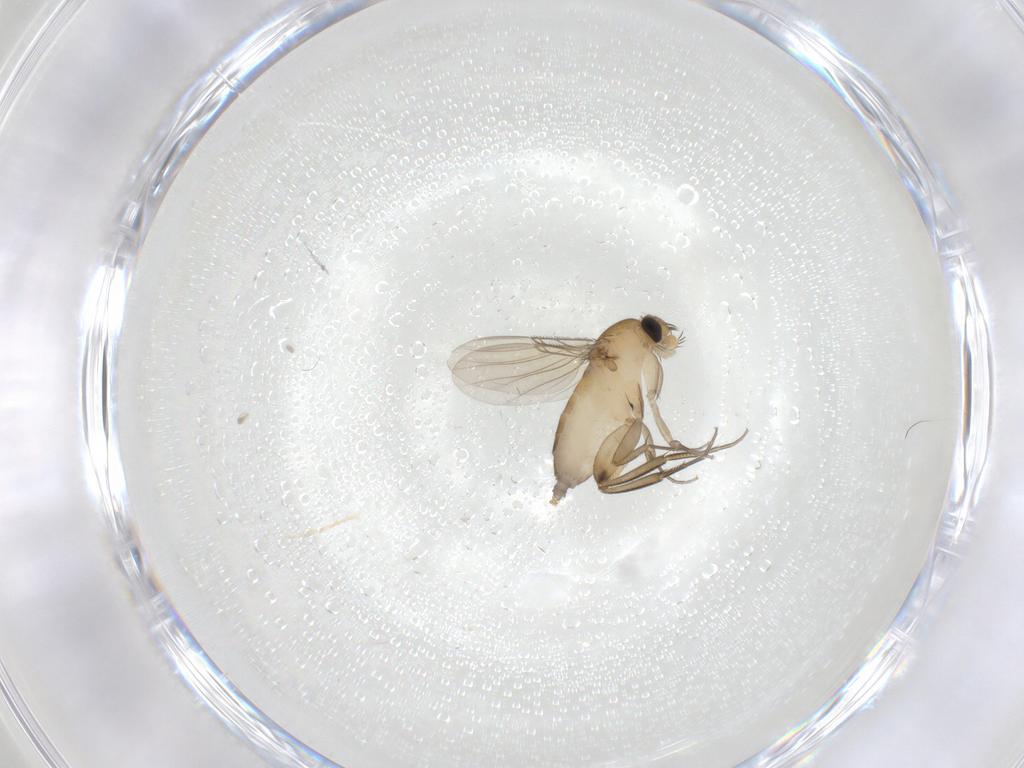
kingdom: Animalia
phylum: Arthropoda
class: Insecta
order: Diptera
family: Phoridae
